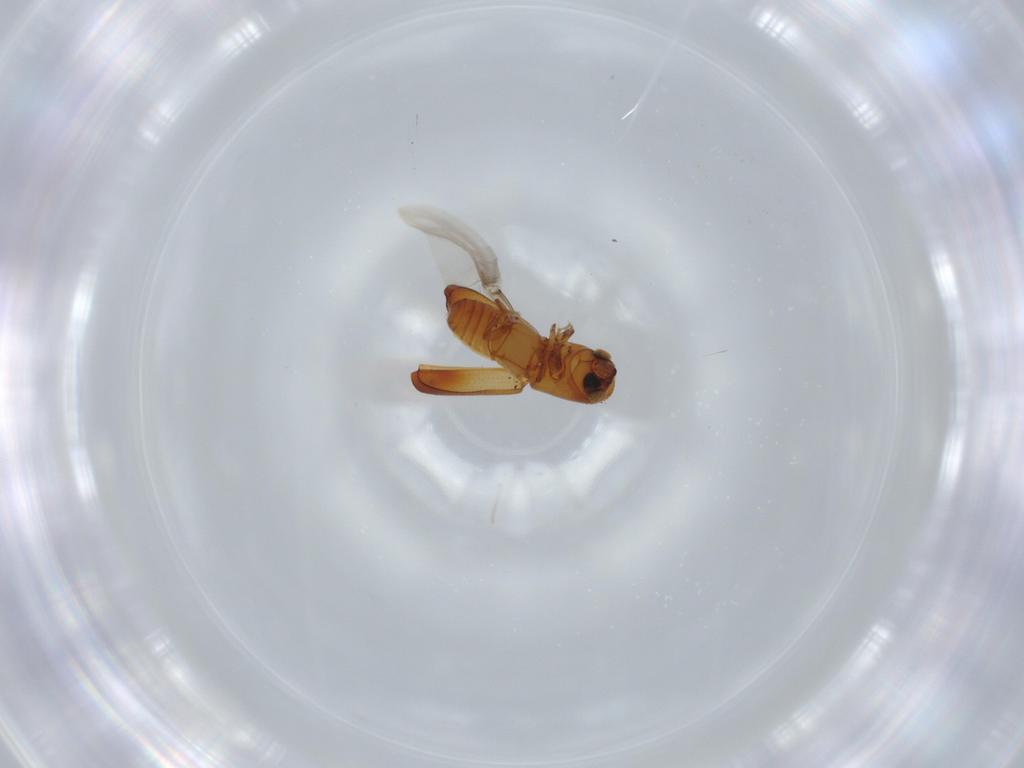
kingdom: Animalia
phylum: Arthropoda
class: Insecta
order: Coleoptera
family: Curculionidae
